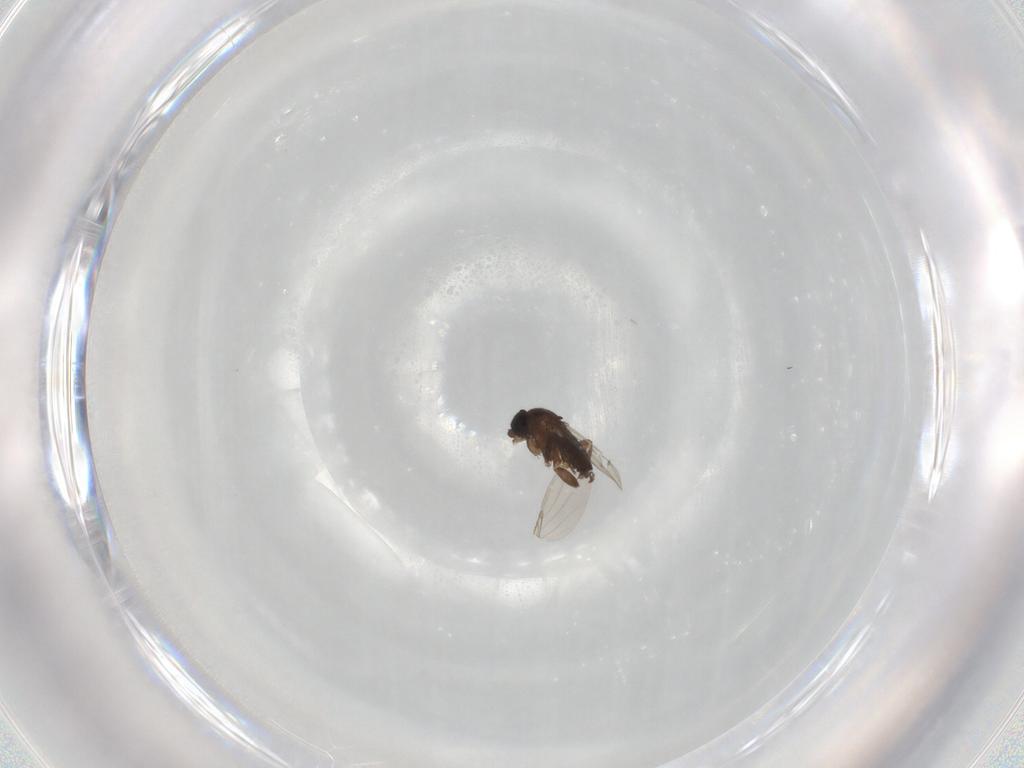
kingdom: Animalia
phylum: Arthropoda
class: Insecta
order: Diptera
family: Phoridae
